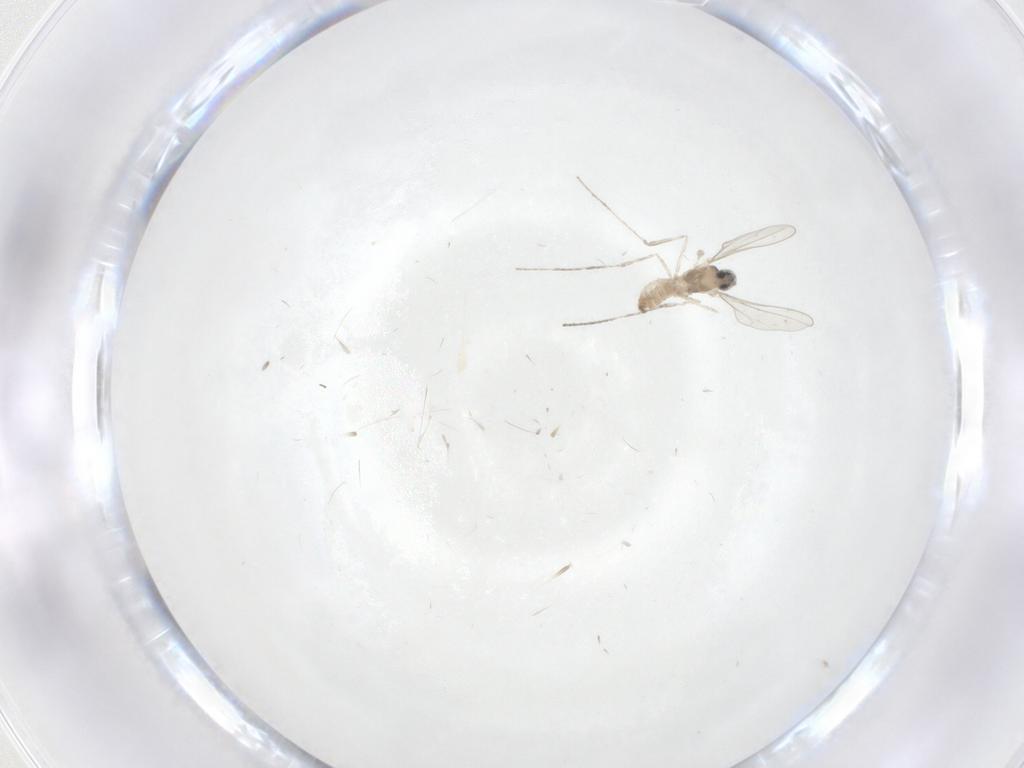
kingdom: Animalia
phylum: Arthropoda
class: Insecta
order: Diptera
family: Cecidomyiidae
